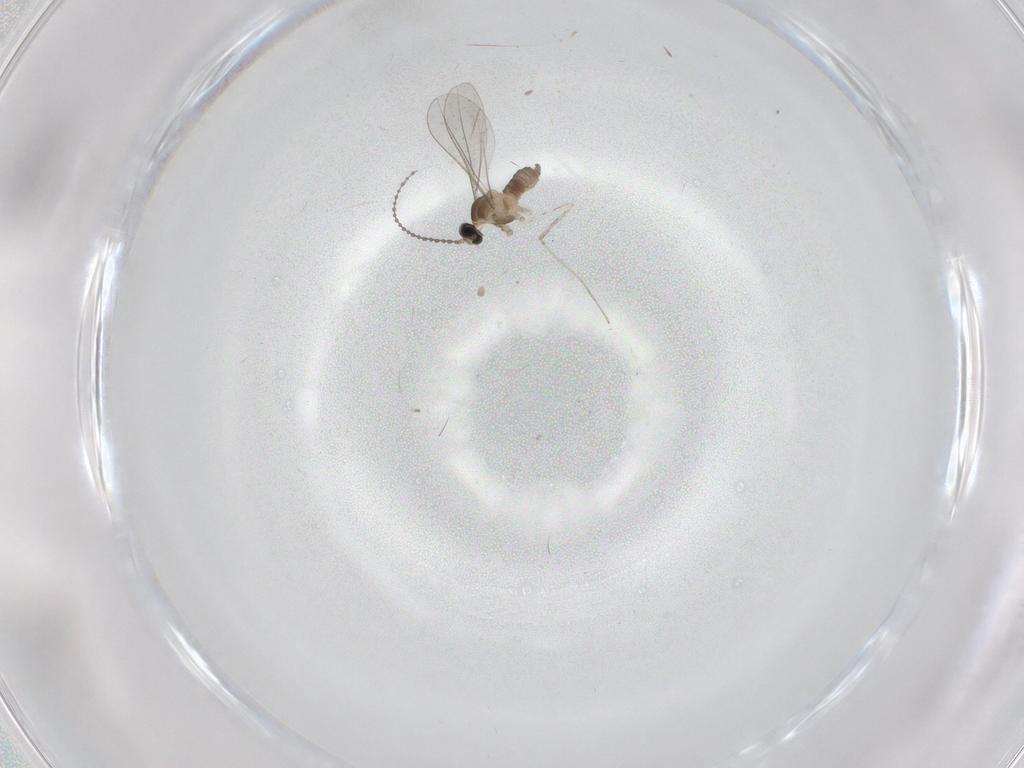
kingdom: Animalia
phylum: Arthropoda
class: Insecta
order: Diptera
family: Cecidomyiidae
